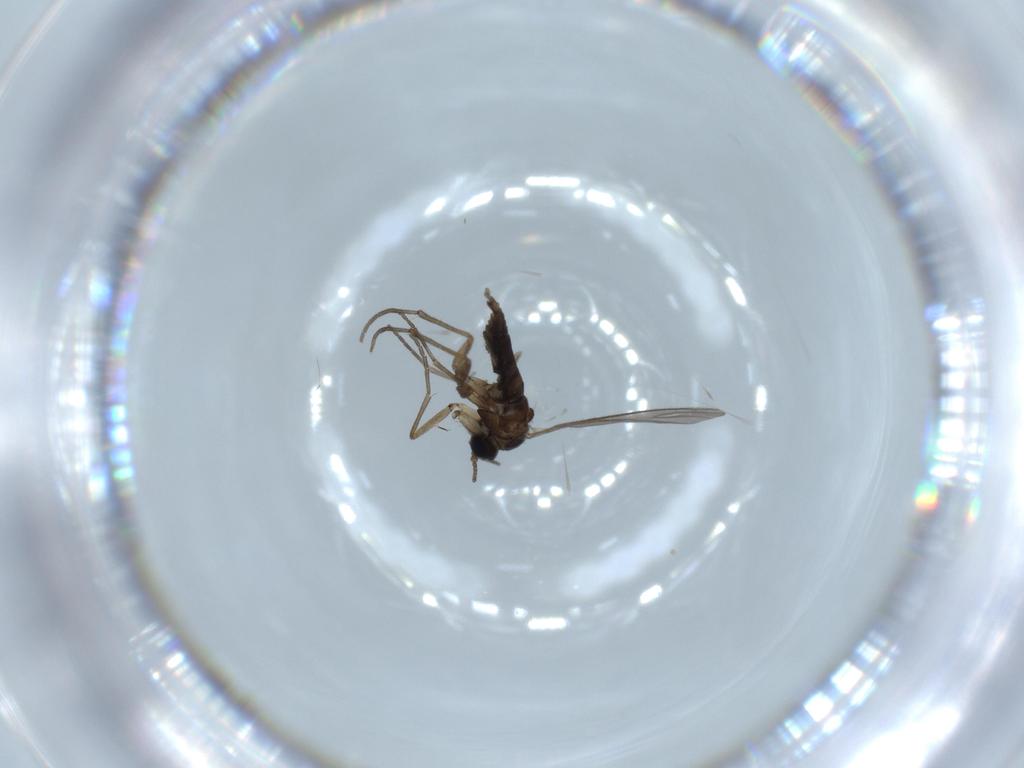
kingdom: Animalia
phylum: Arthropoda
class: Insecta
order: Diptera
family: Sciaridae
